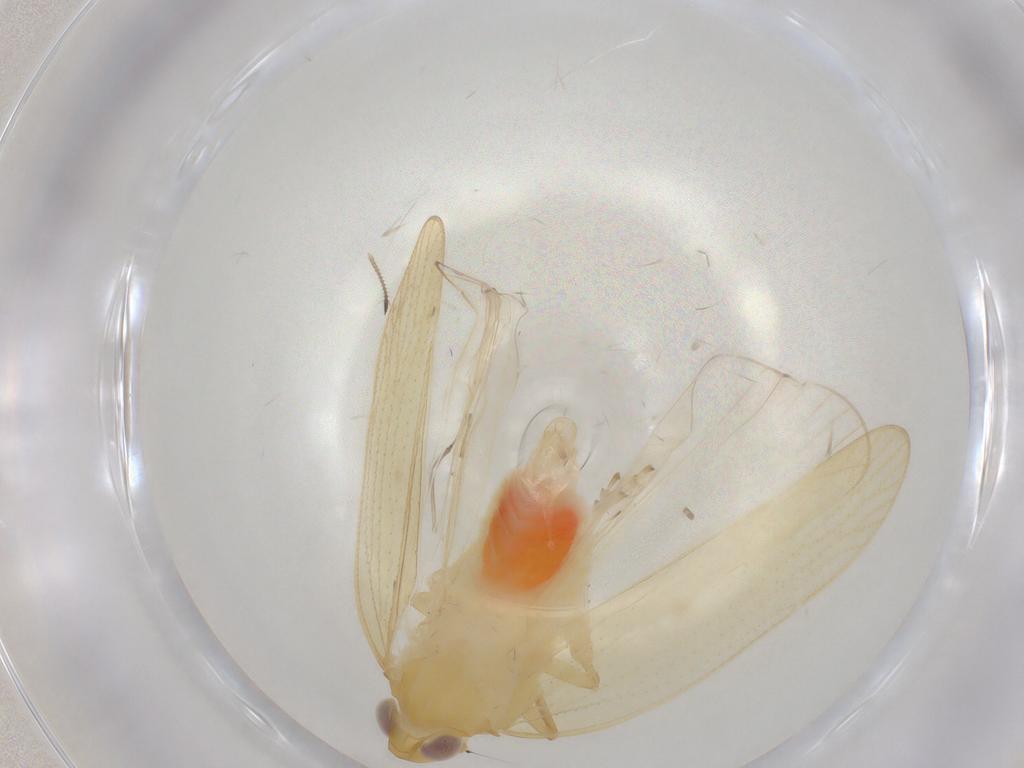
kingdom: Animalia
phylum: Arthropoda
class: Insecta
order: Hemiptera
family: Cixiidae
